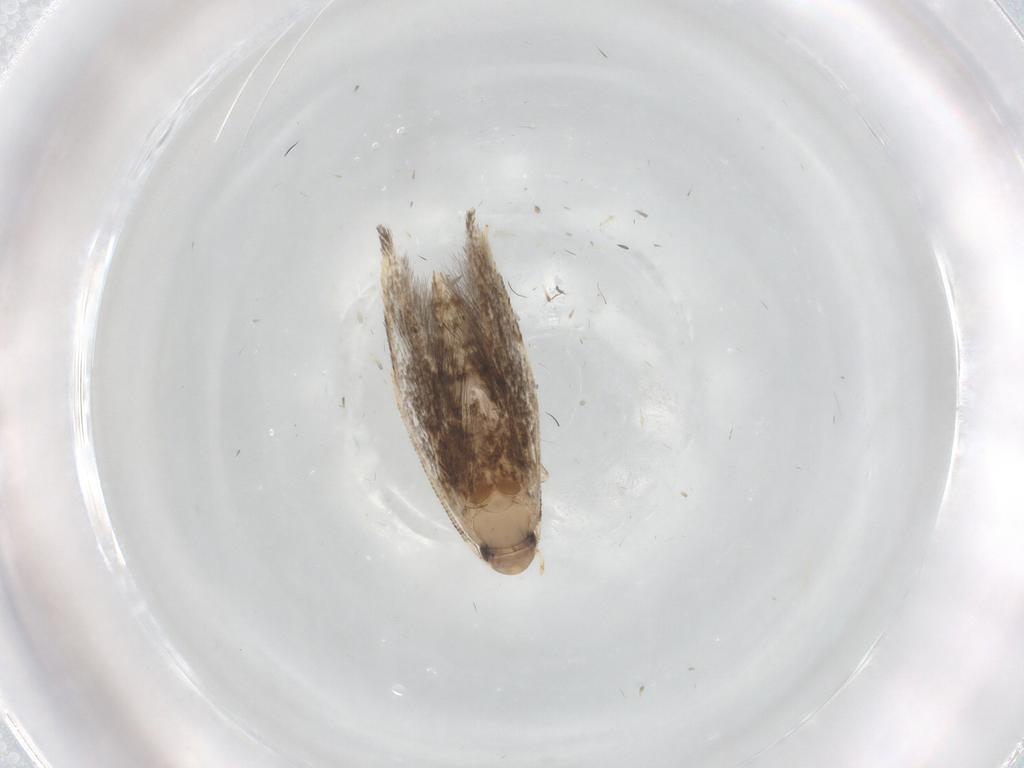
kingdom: Animalia
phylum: Arthropoda
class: Insecta
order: Lepidoptera
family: Gelechiidae
